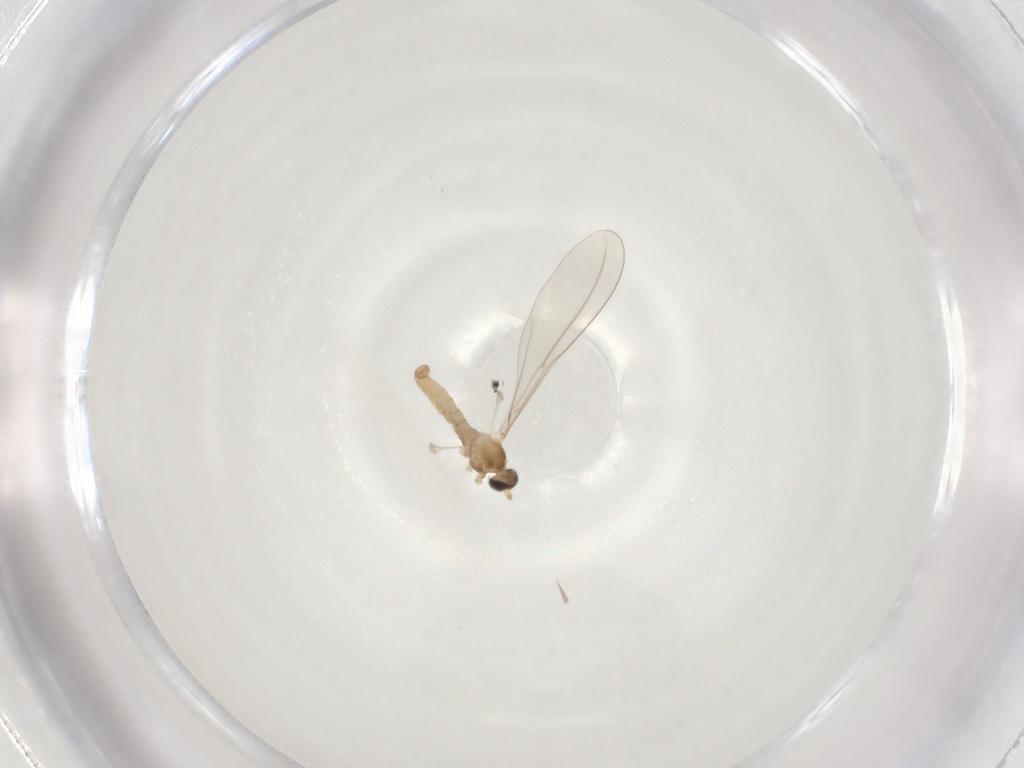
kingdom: Animalia
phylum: Arthropoda
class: Insecta
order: Diptera
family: Cecidomyiidae
